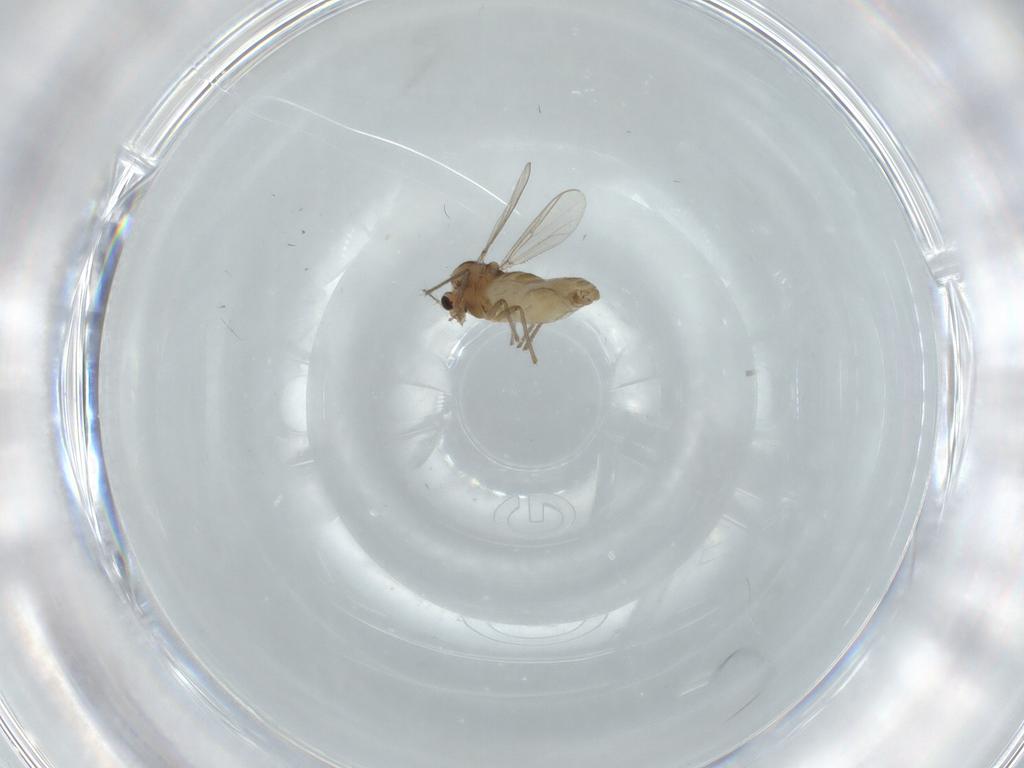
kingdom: Animalia
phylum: Arthropoda
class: Insecta
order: Diptera
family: Chironomidae
